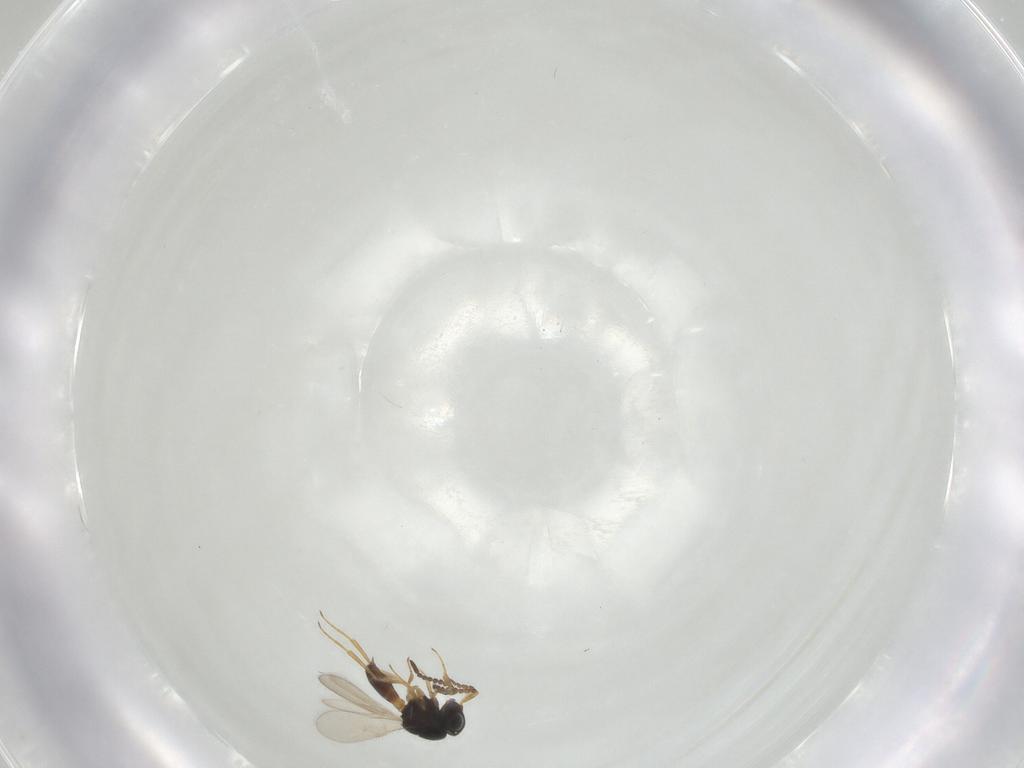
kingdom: Animalia
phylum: Arthropoda
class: Insecta
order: Hymenoptera
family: Scelionidae
